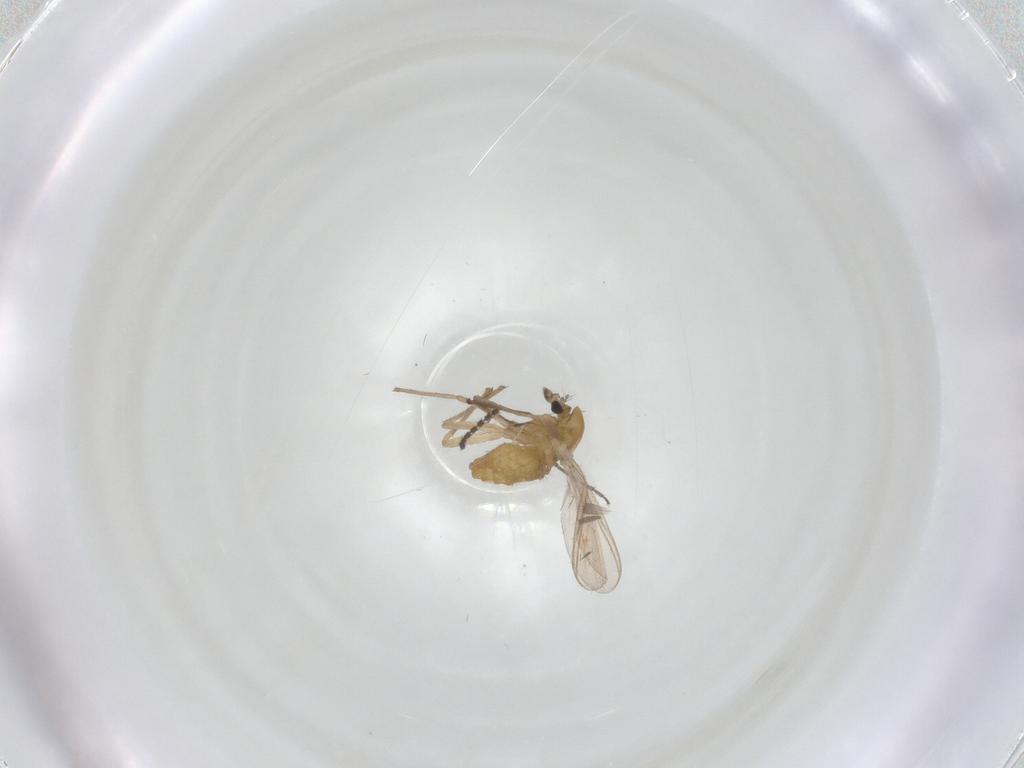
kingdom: Animalia
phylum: Arthropoda
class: Insecta
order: Diptera
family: Chironomidae
